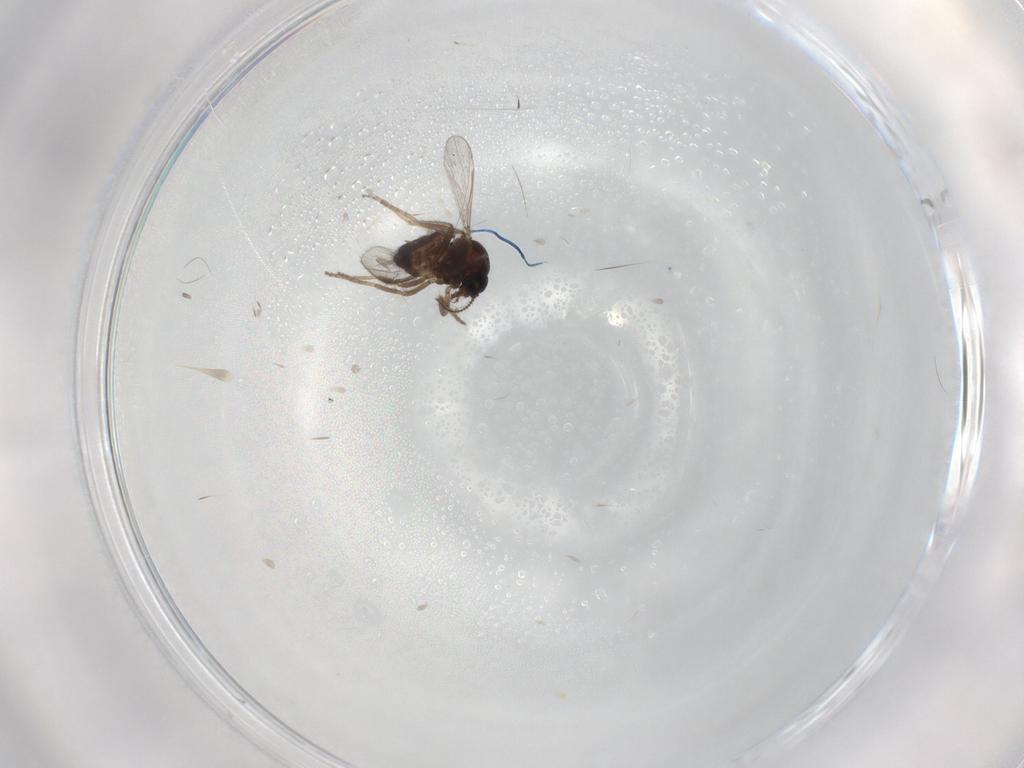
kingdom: Animalia
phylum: Arthropoda
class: Insecta
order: Diptera
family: Ceratopogonidae
